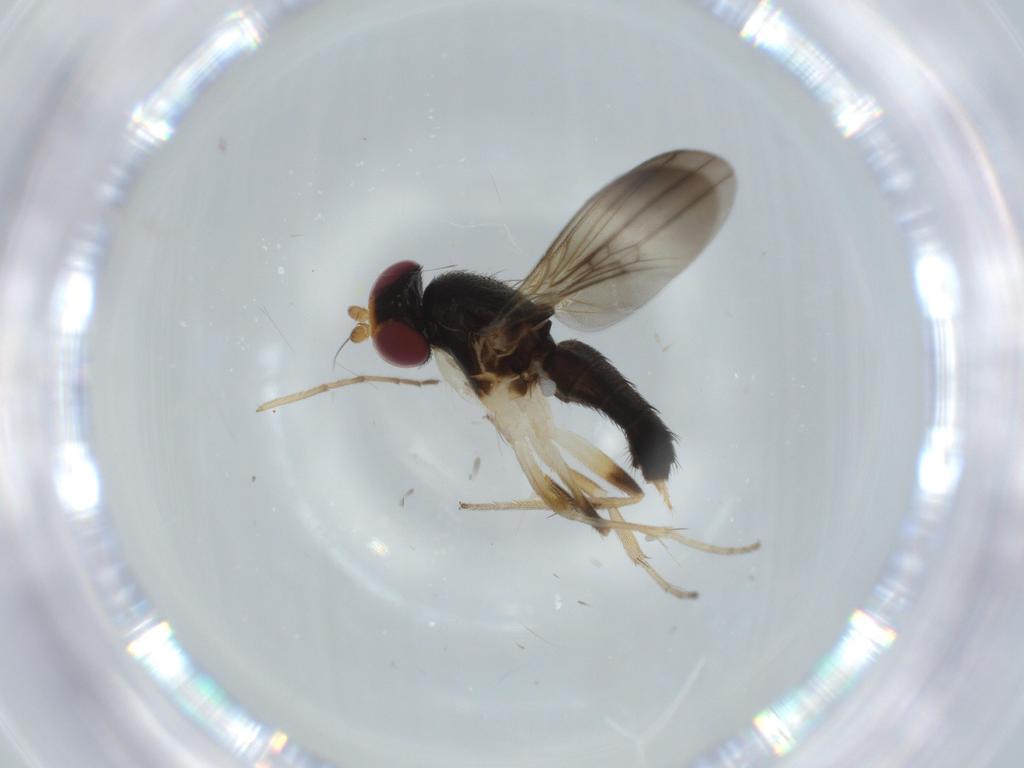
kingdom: Animalia
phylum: Arthropoda
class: Insecta
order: Diptera
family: Clusiidae
